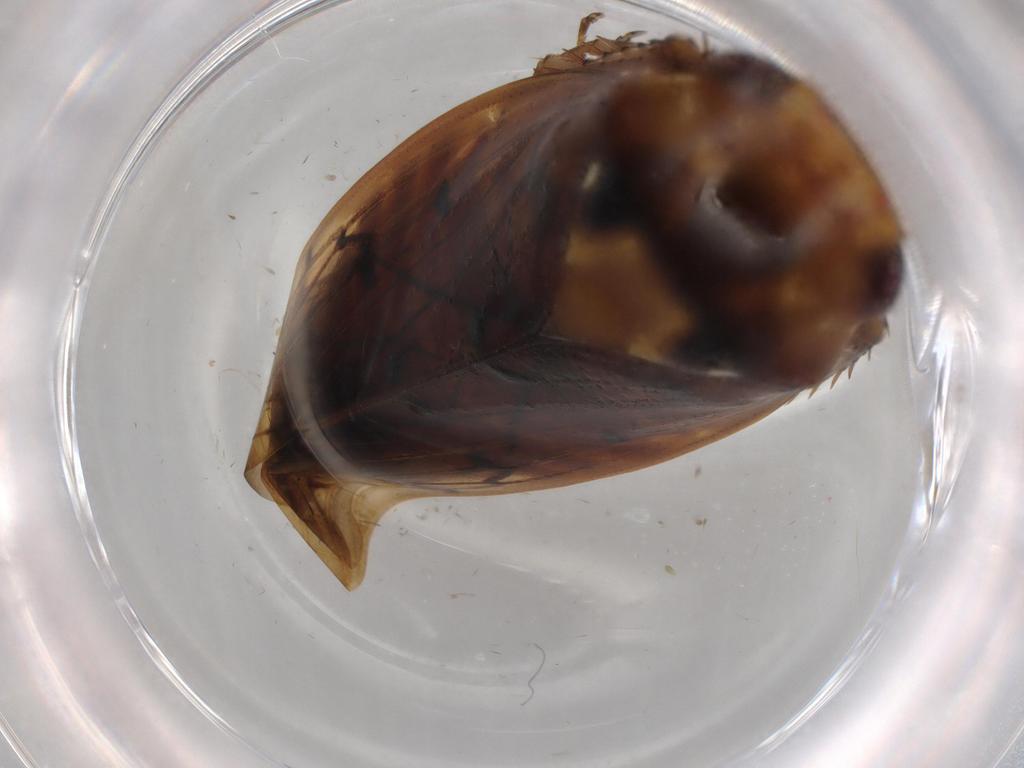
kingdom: Animalia
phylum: Arthropoda
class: Insecta
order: Hemiptera
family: Cicadellidae
